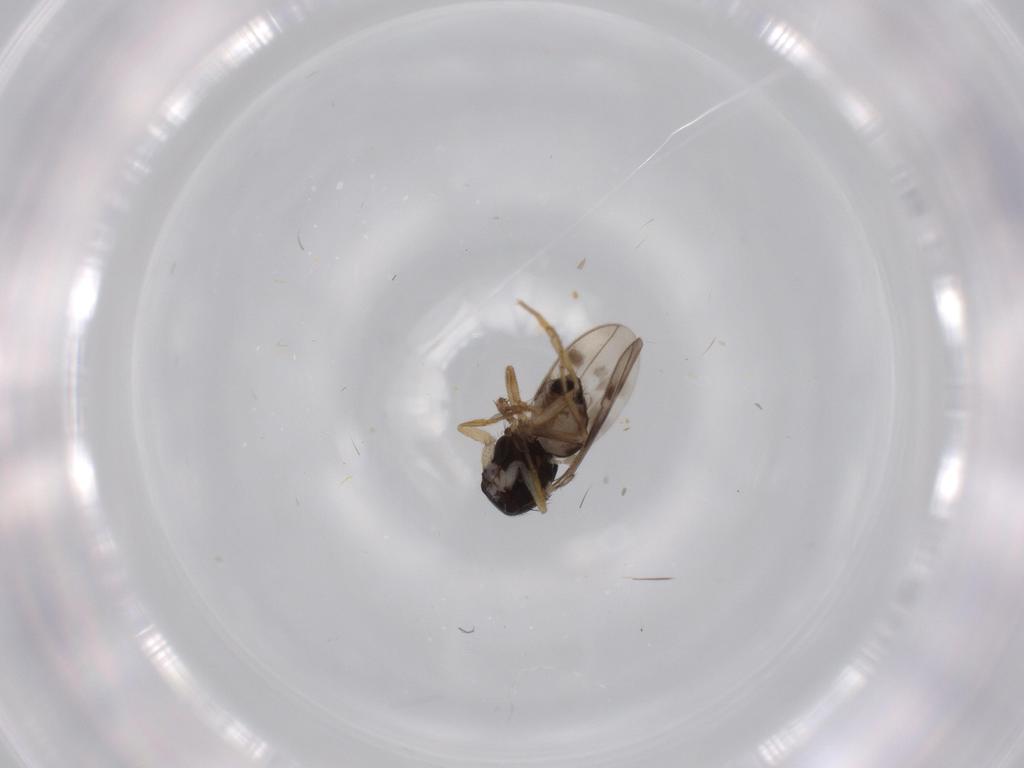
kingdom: Animalia
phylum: Arthropoda
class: Insecta
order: Diptera
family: Sphaeroceridae
